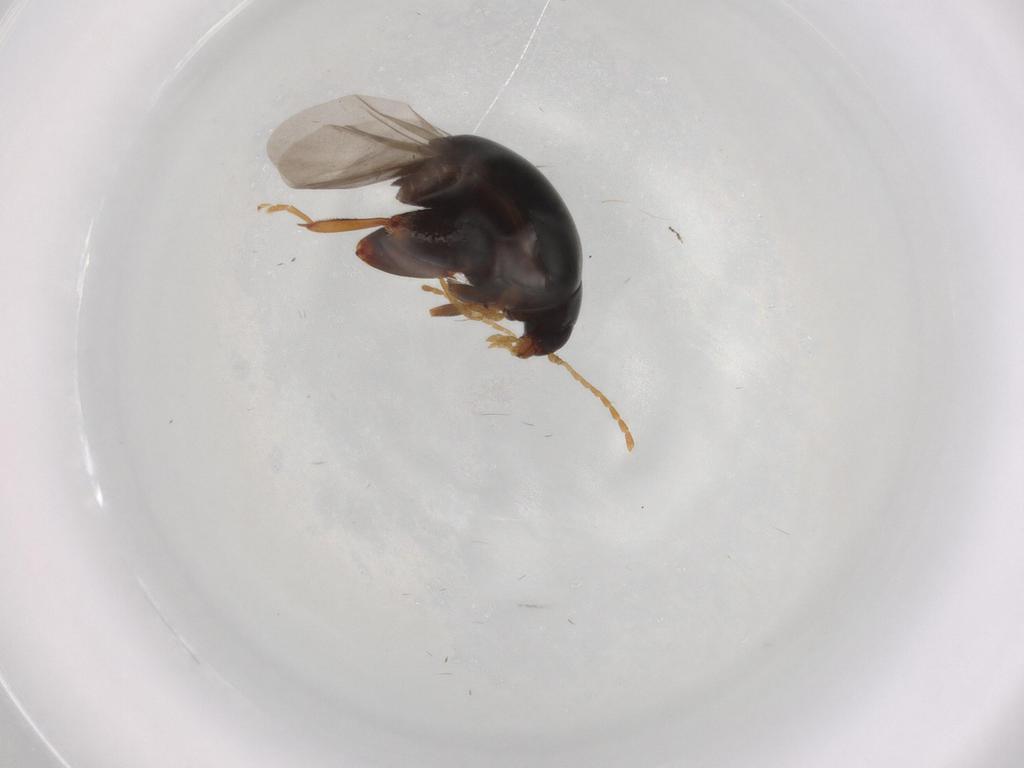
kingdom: Animalia
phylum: Arthropoda
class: Insecta
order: Coleoptera
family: Chrysomelidae
